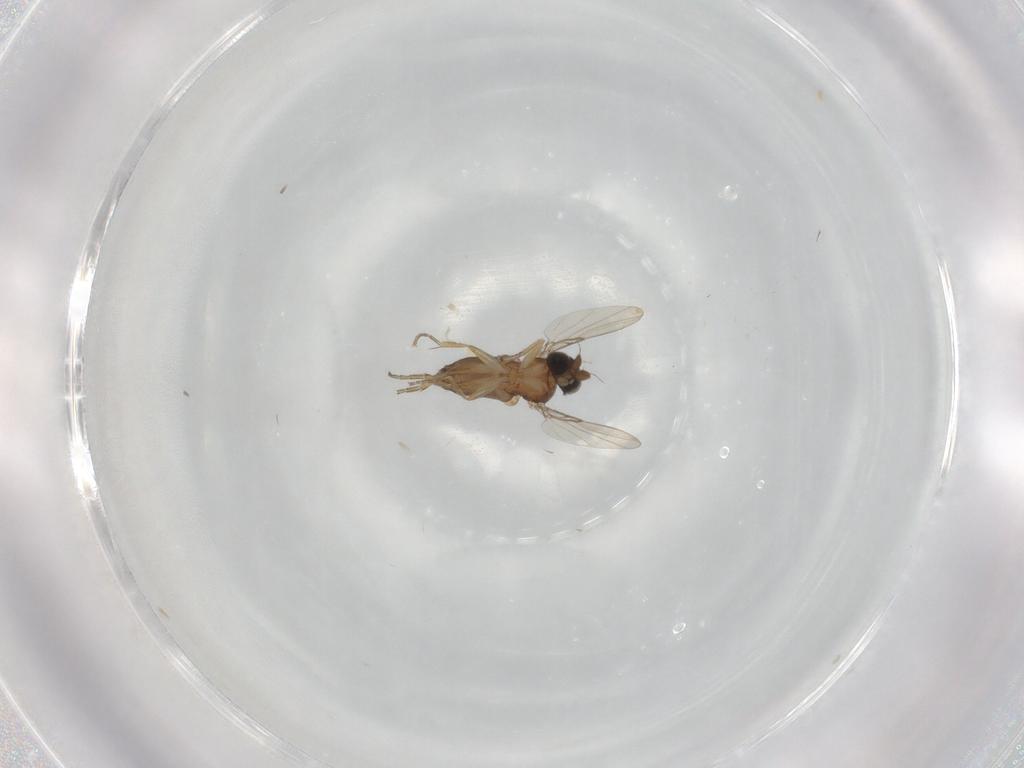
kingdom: Animalia
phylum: Arthropoda
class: Insecta
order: Diptera
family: Phoridae
